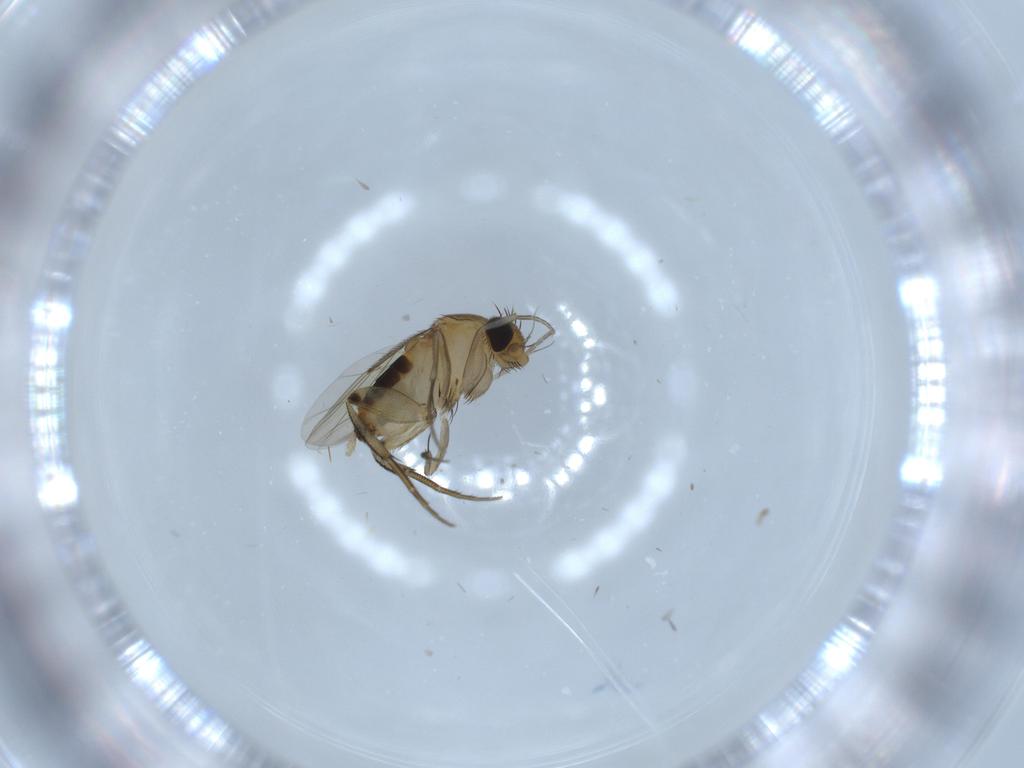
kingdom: Animalia
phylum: Arthropoda
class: Insecta
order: Diptera
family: Phoridae
